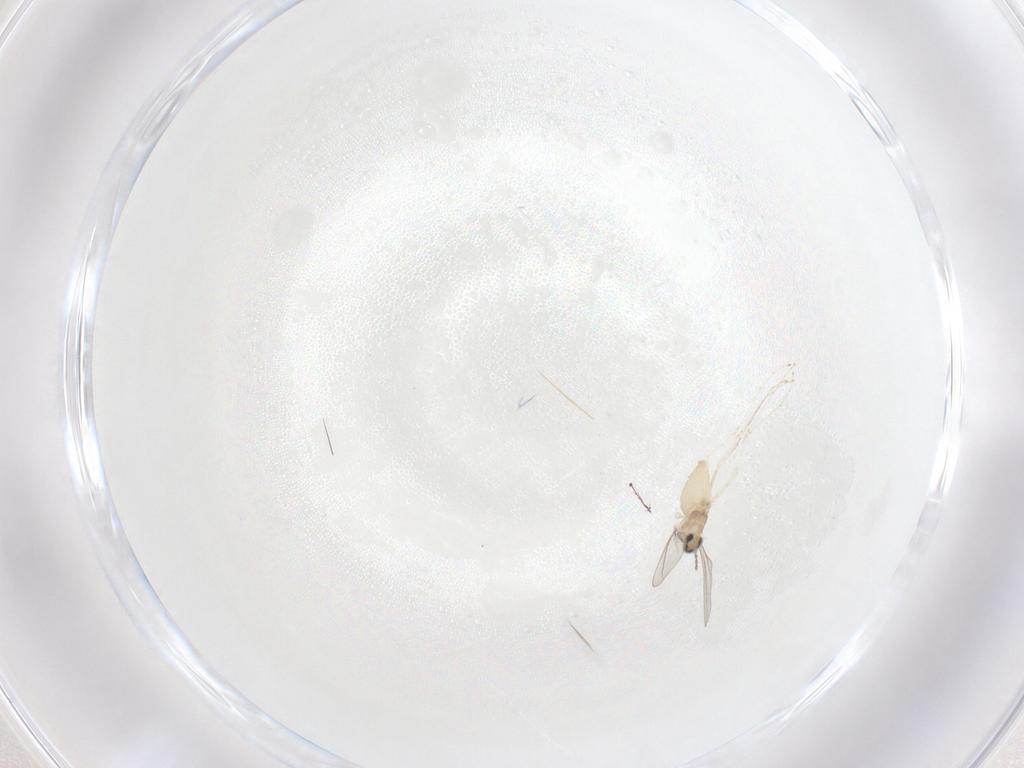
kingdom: Animalia
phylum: Arthropoda
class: Insecta
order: Diptera
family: Cecidomyiidae
